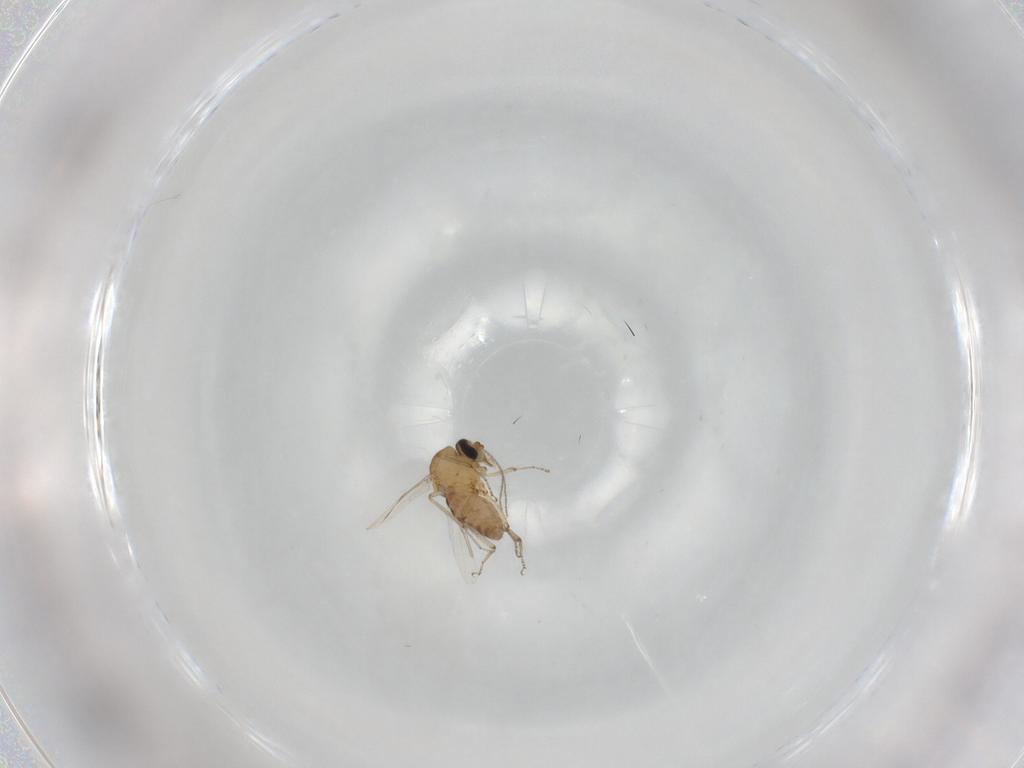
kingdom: Animalia
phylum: Arthropoda
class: Insecta
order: Diptera
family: Ceratopogonidae
